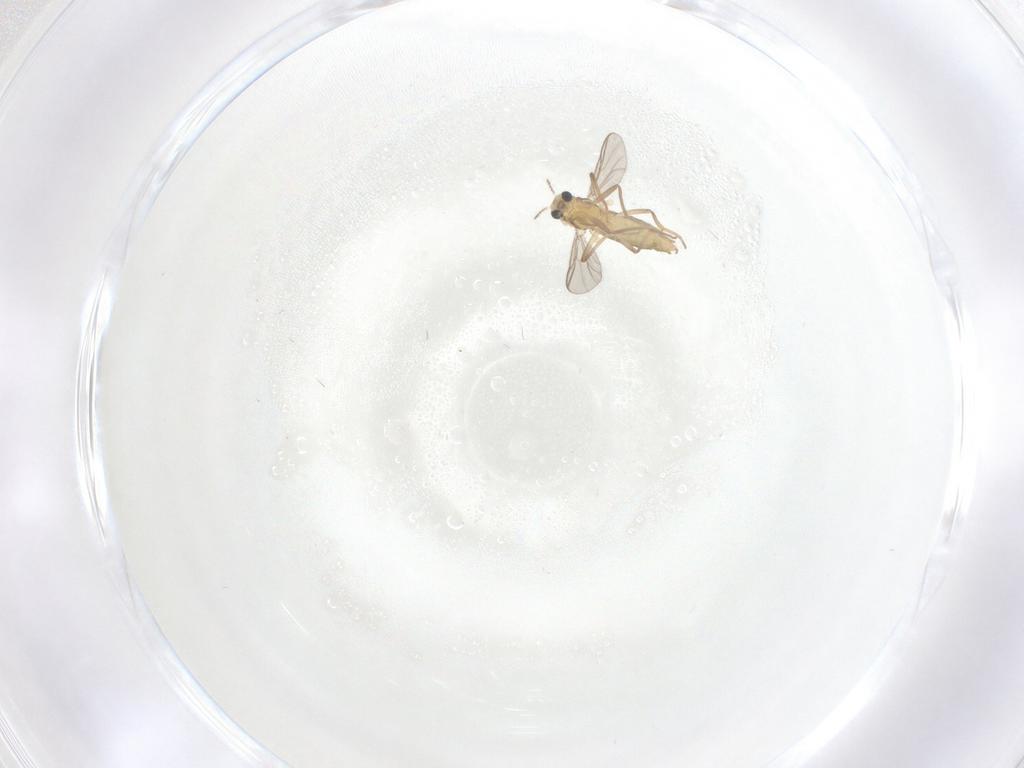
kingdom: Animalia
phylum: Arthropoda
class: Insecta
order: Diptera
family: Chironomidae
